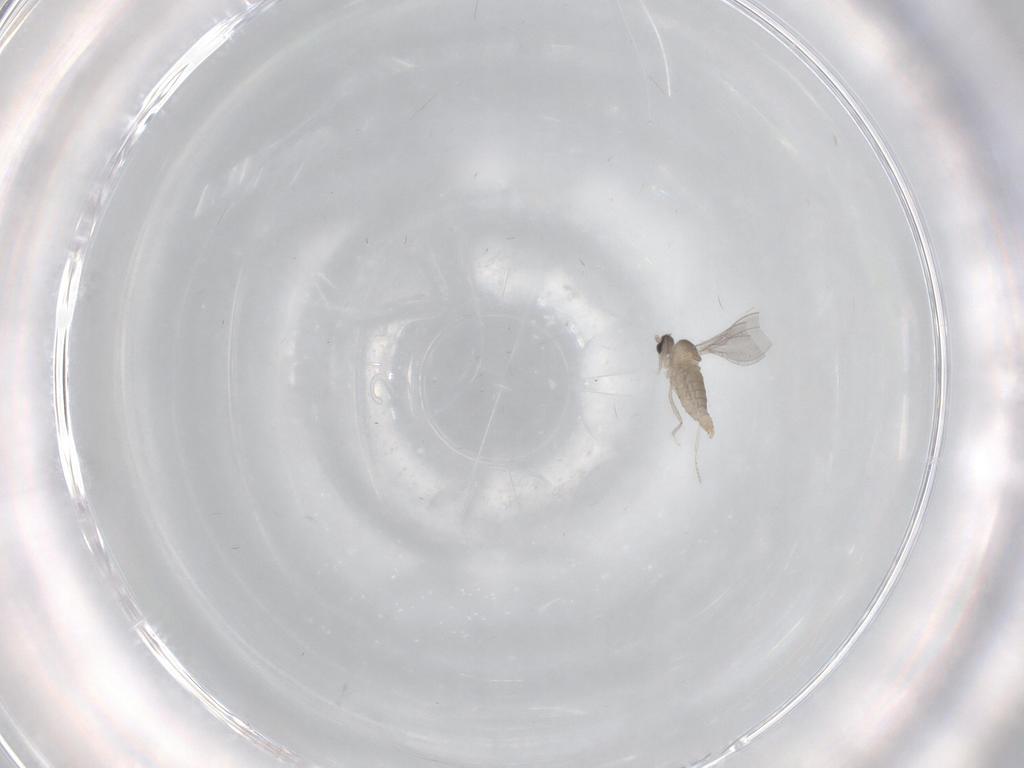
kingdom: Animalia
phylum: Arthropoda
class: Insecta
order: Diptera
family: Cecidomyiidae
